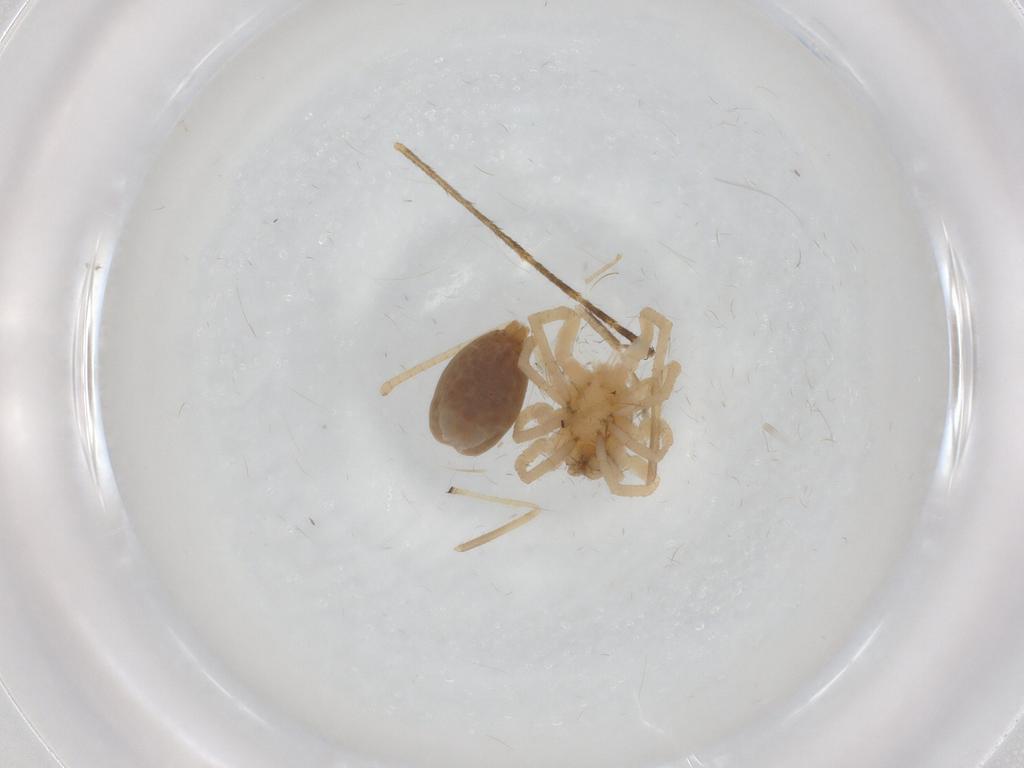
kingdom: Animalia
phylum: Arthropoda
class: Arachnida
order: Araneae
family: Clubionidae
